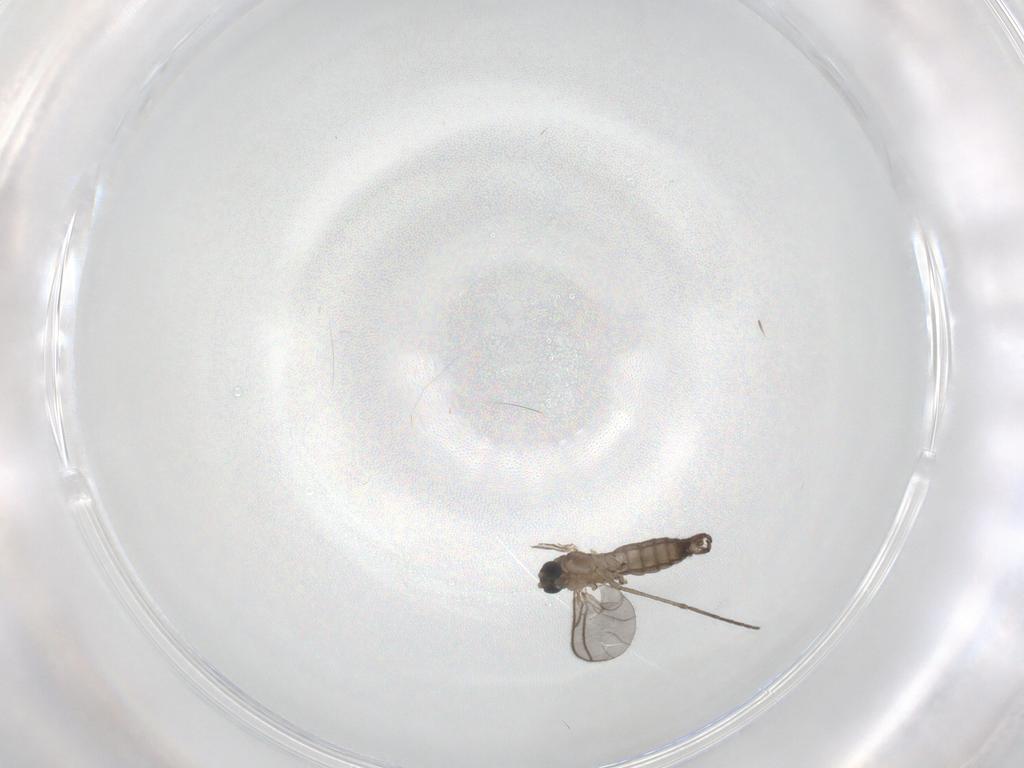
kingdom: Animalia
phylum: Arthropoda
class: Insecta
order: Diptera
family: Sciaridae
